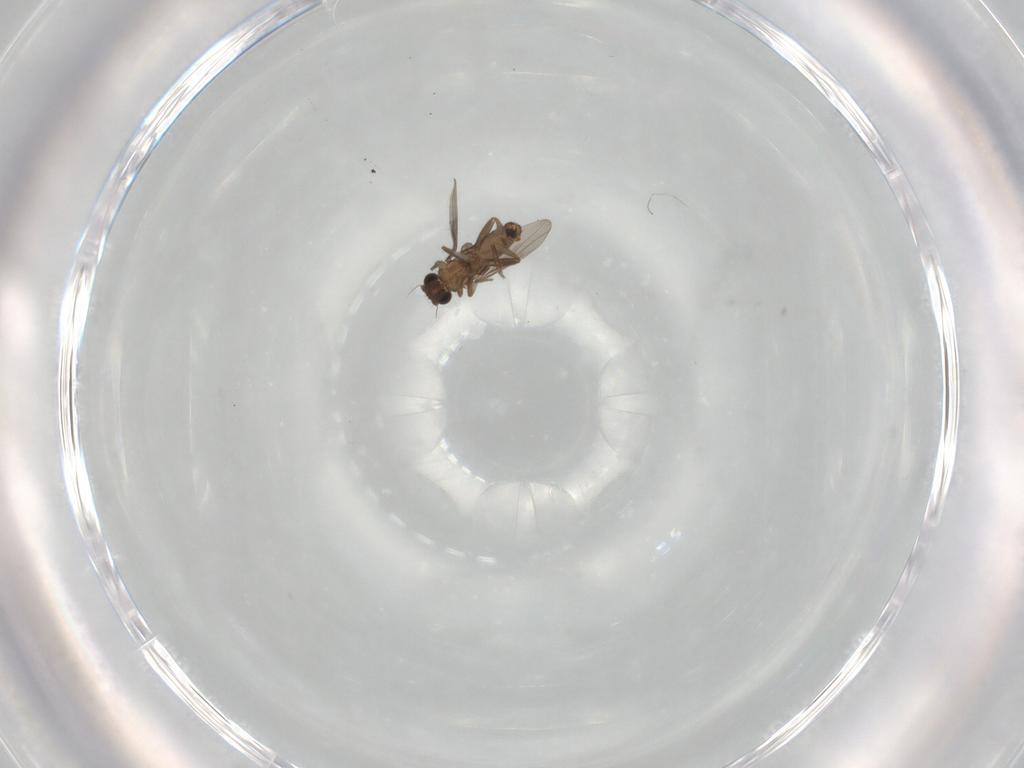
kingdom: Animalia
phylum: Arthropoda
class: Insecta
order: Diptera
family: Phoridae
